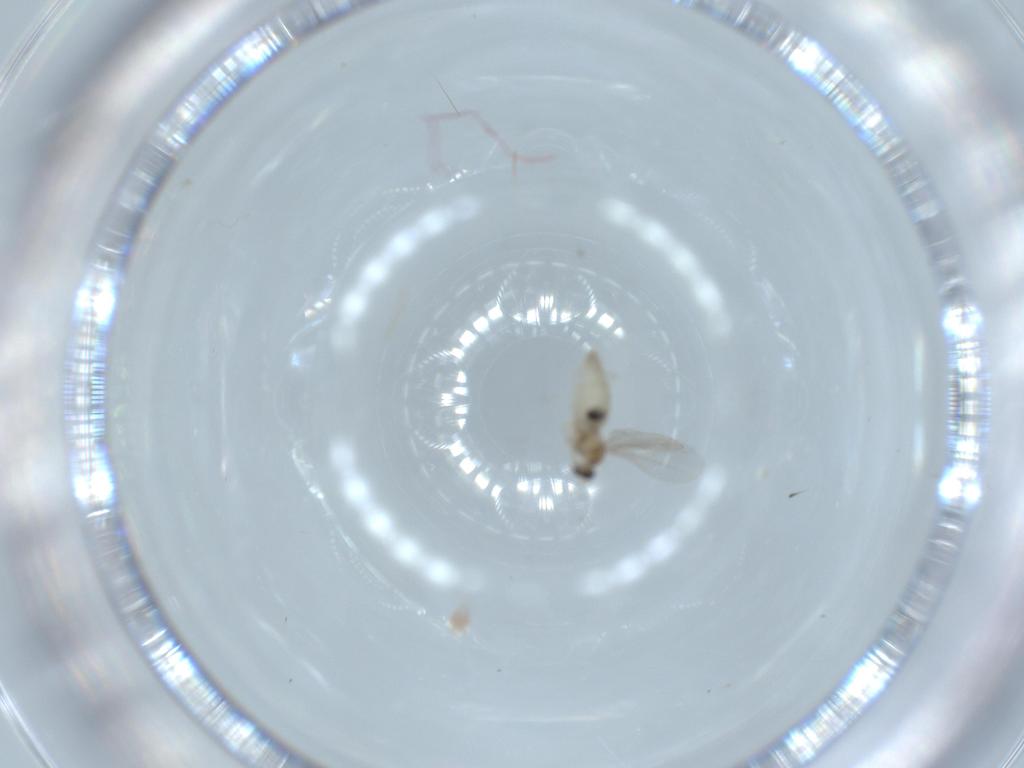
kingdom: Animalia
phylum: Arthropoda
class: Insecta
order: Diptera
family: Cecidomyiidae
